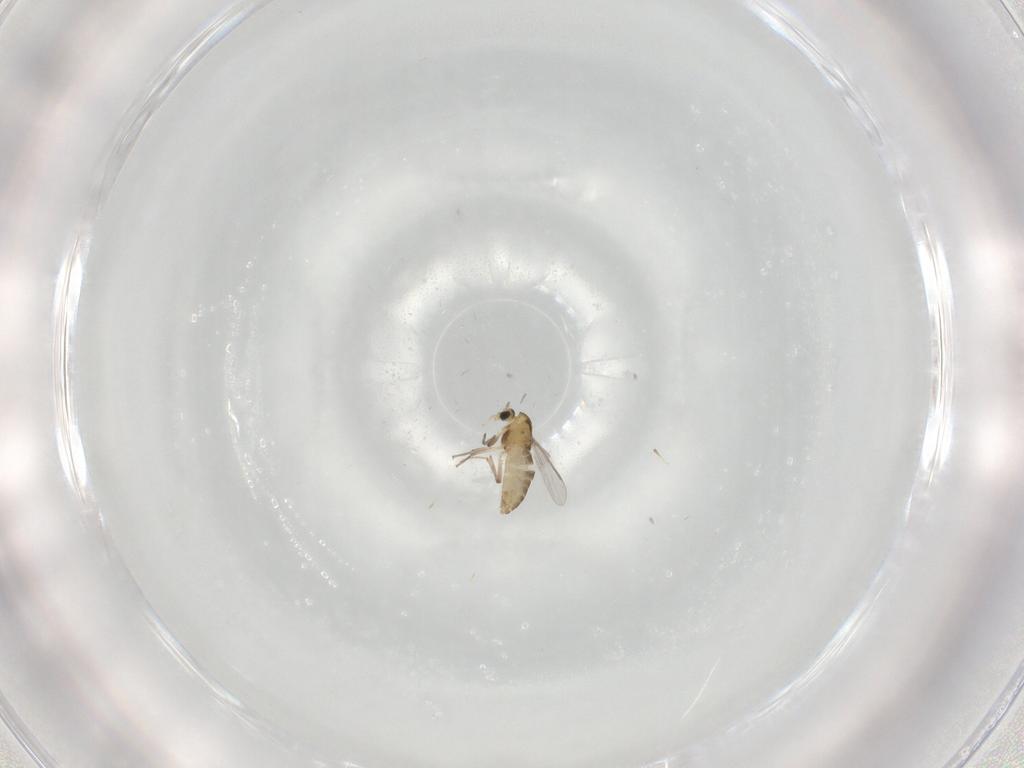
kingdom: Animalia
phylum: Arthropoda
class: Insecta
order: Diptera
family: Chironomidae
